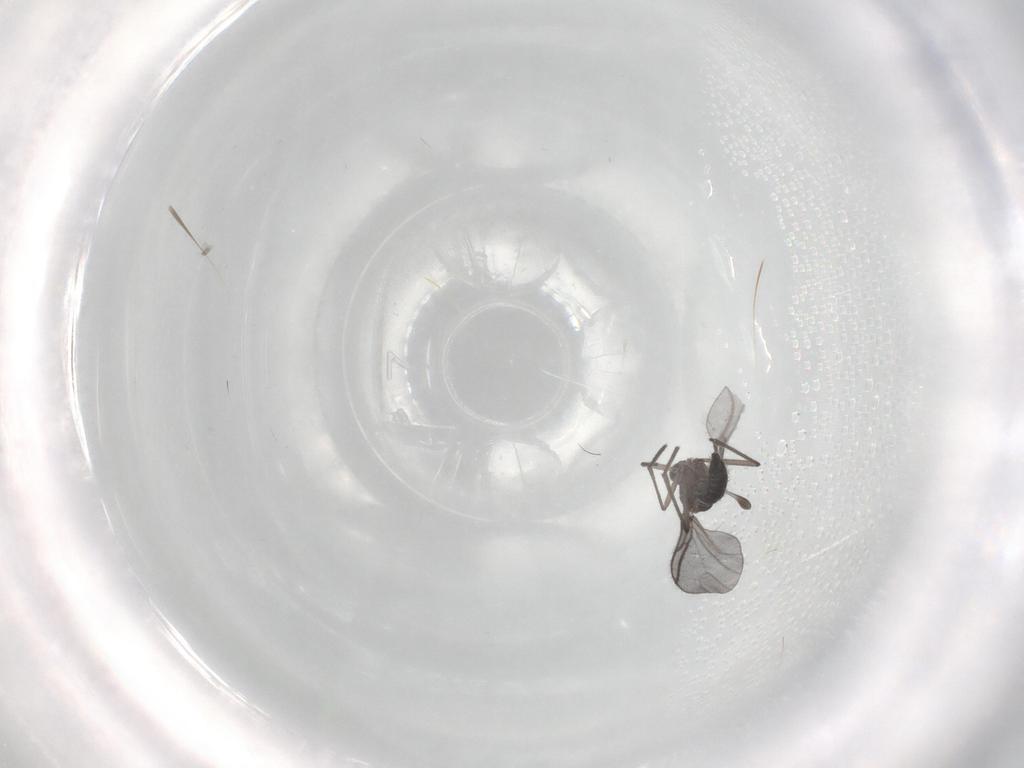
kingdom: Animalia
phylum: Arthropoda
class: Insecta
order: Diptera
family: Sciaridae
